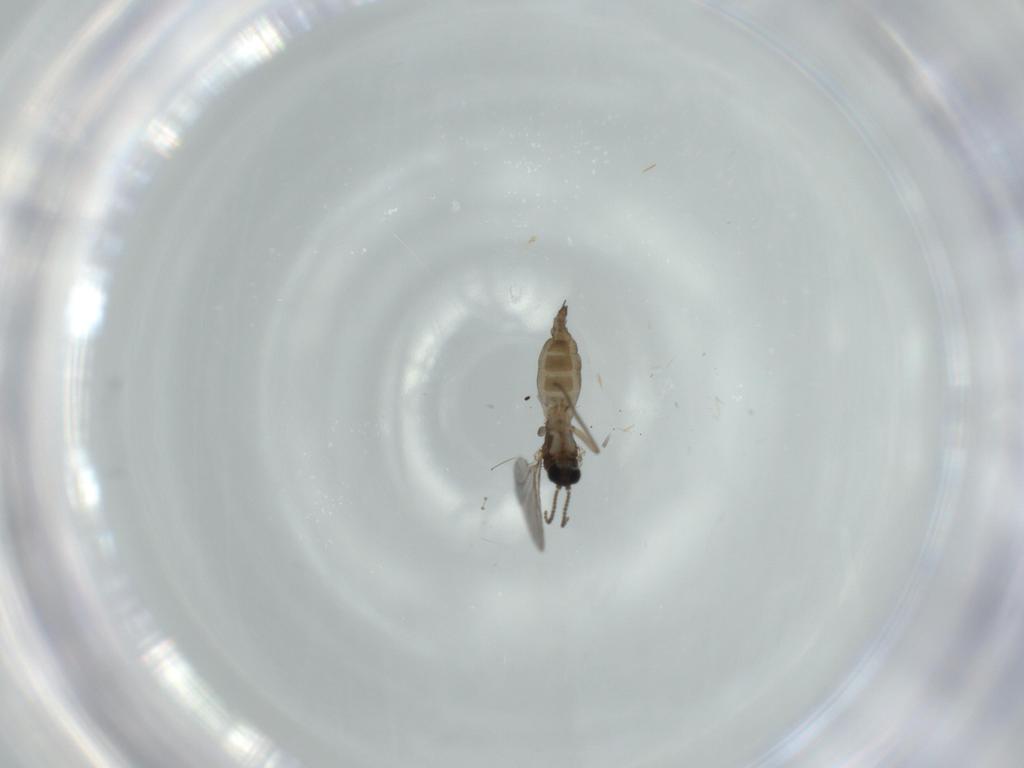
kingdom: Animalia
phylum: Arthropoda
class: Insecta
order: Diptera
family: Sciaridae
